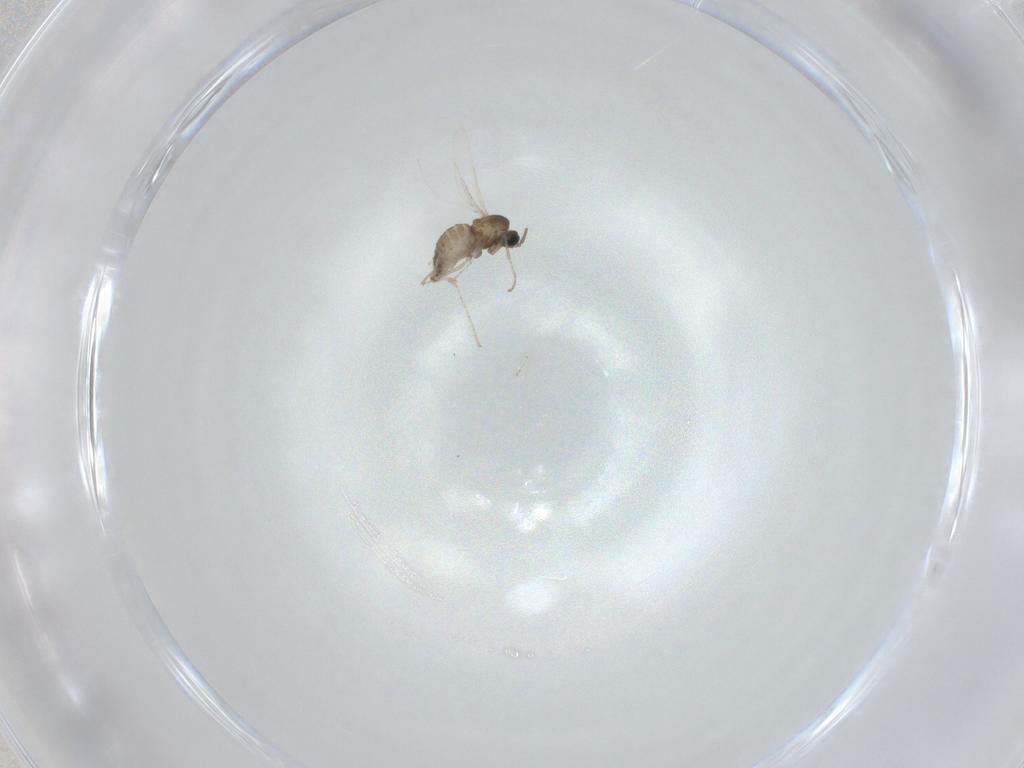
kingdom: Animalia
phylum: Arthropoda
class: Insecta
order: Diptera
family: Cecidomyiidae
